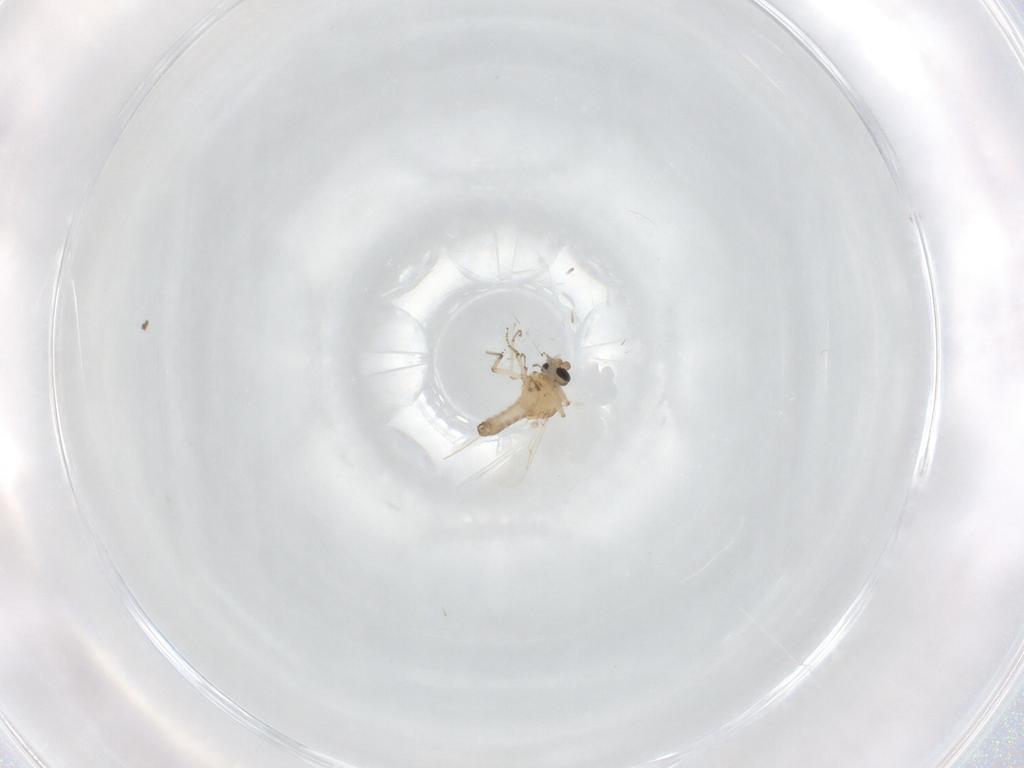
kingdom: Animalia
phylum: Arthropoda
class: Insecta
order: Diptera
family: Ceratopogonidae
